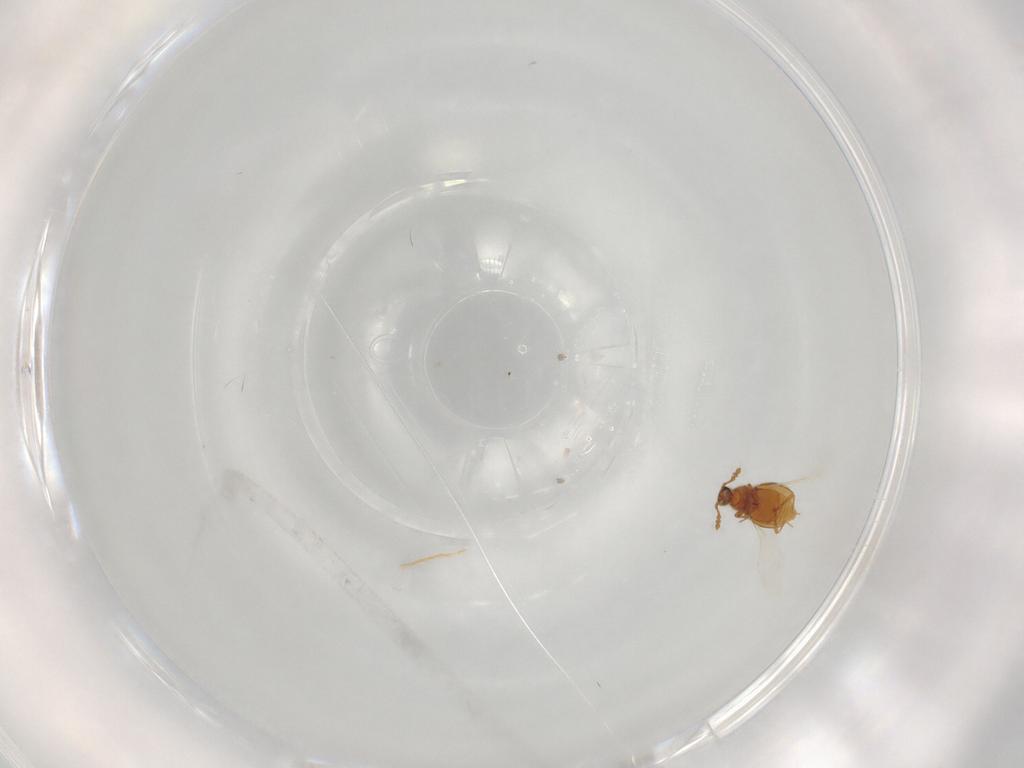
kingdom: Animalia
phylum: Arthropoda
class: Insecta
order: Coleoptera
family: Staphylinidae
